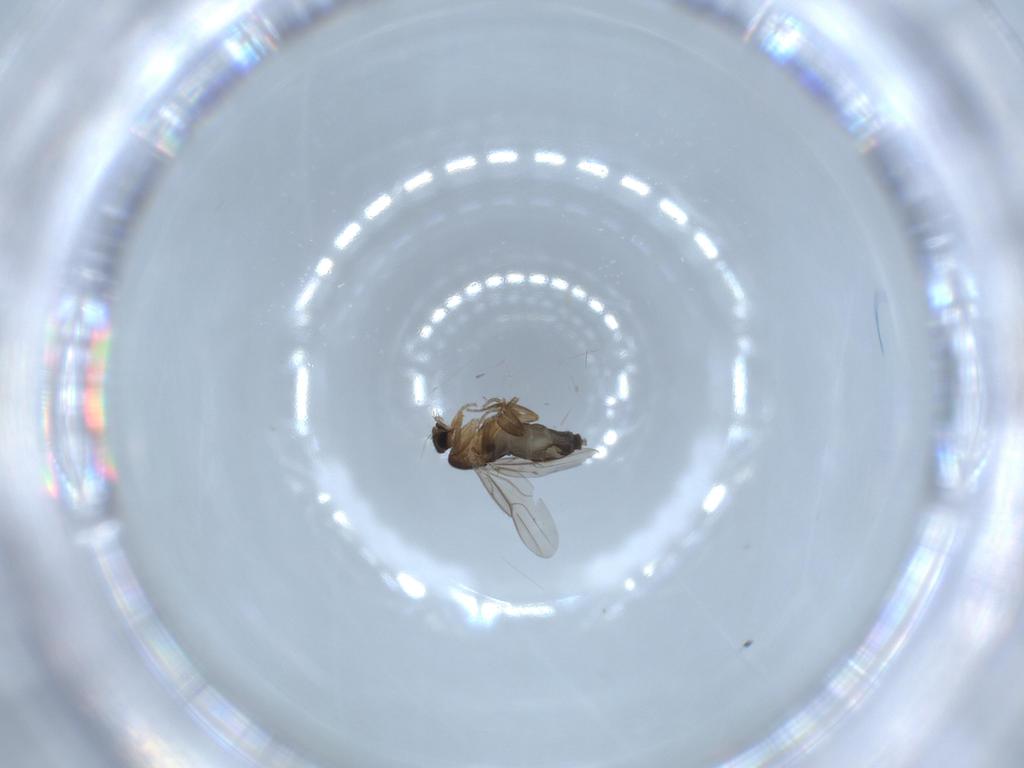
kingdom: Animalia
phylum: Arthropoda
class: Insecta
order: Diptera
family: Phoridae
